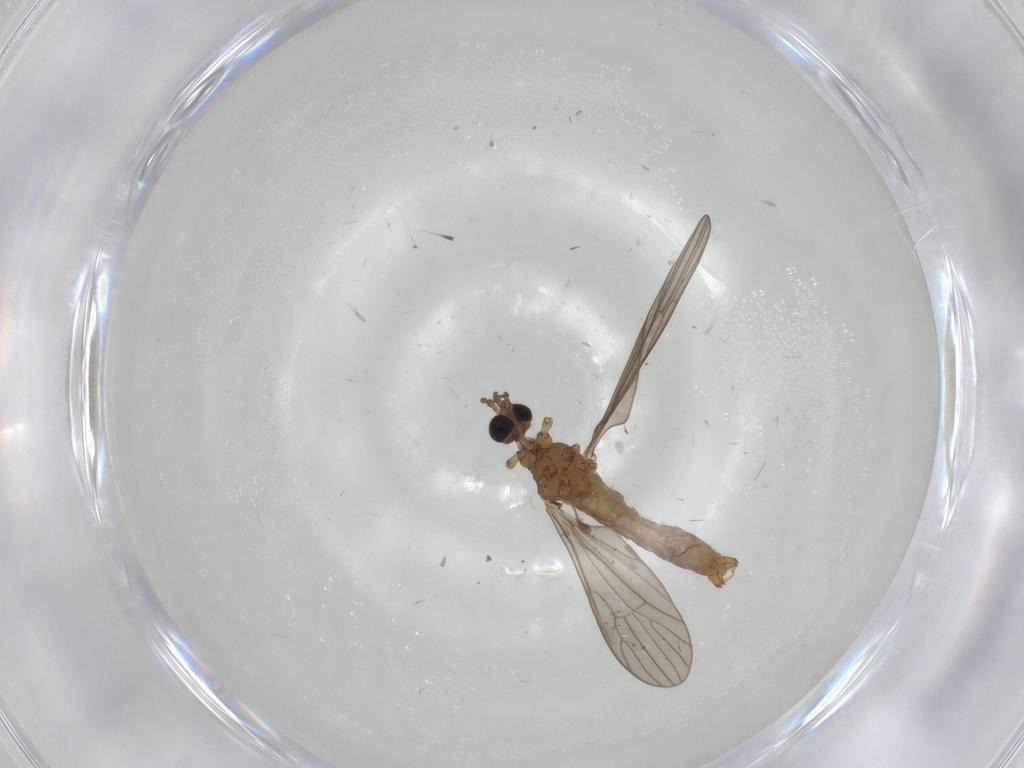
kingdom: Animalia
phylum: Arthropoda
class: Insecta
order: Diptera
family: Limoniidae
